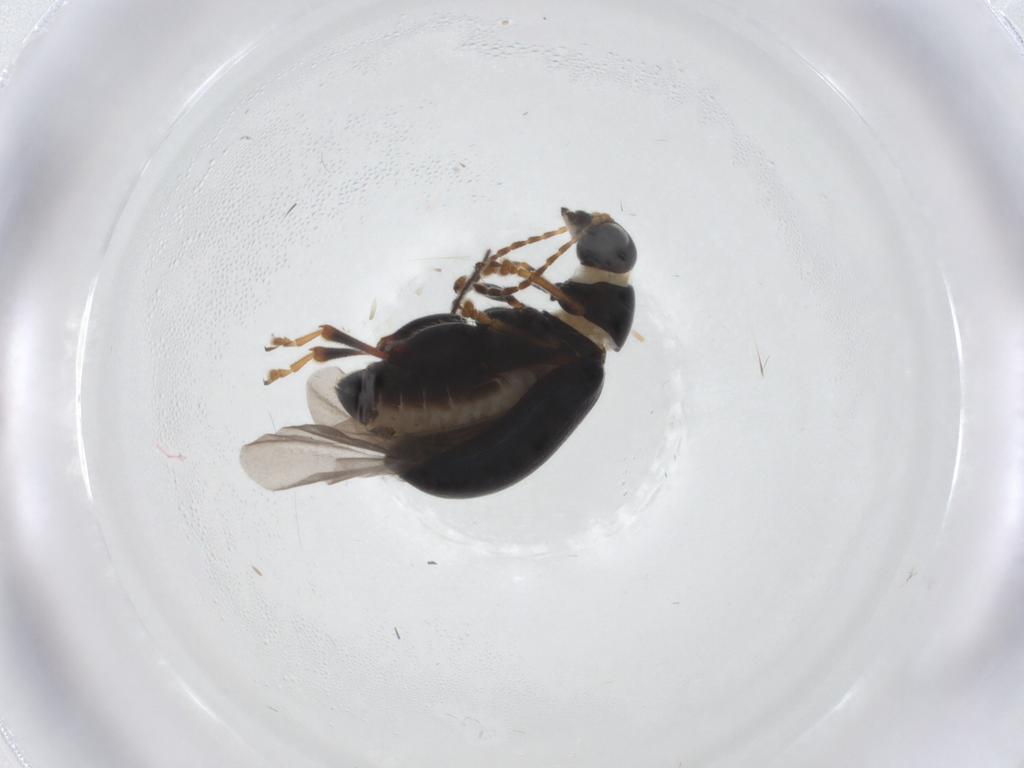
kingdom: Animalia
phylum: Arthropoda
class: Insecta
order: Coleoptera
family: Chrysomelidae
